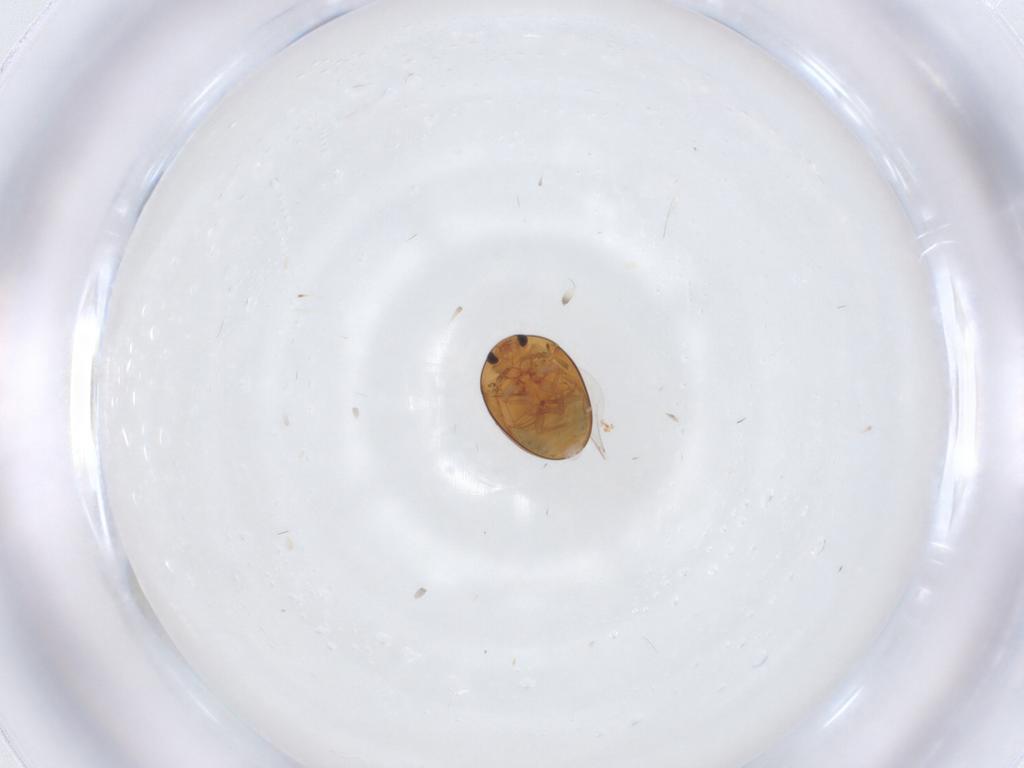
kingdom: Animalia
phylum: Arthropoda
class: Insecta
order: Coleoptera
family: Phalacridae
